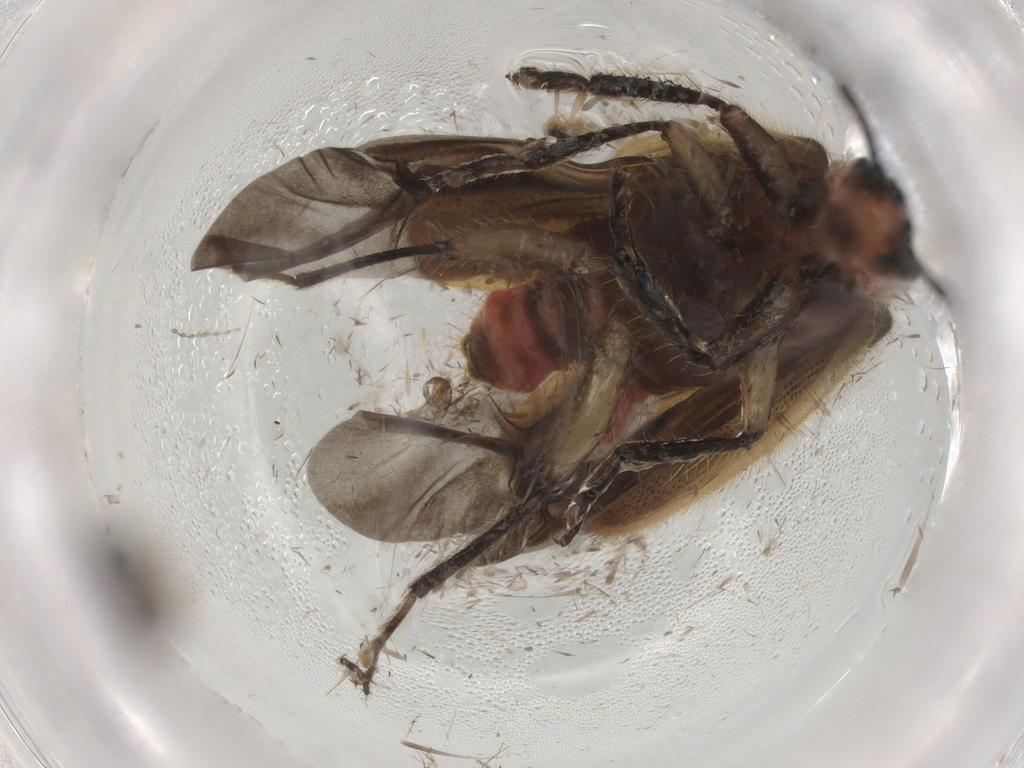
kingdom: Animalia
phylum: Arthropoda
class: Insecta
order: Coleoptera
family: Cleridae
